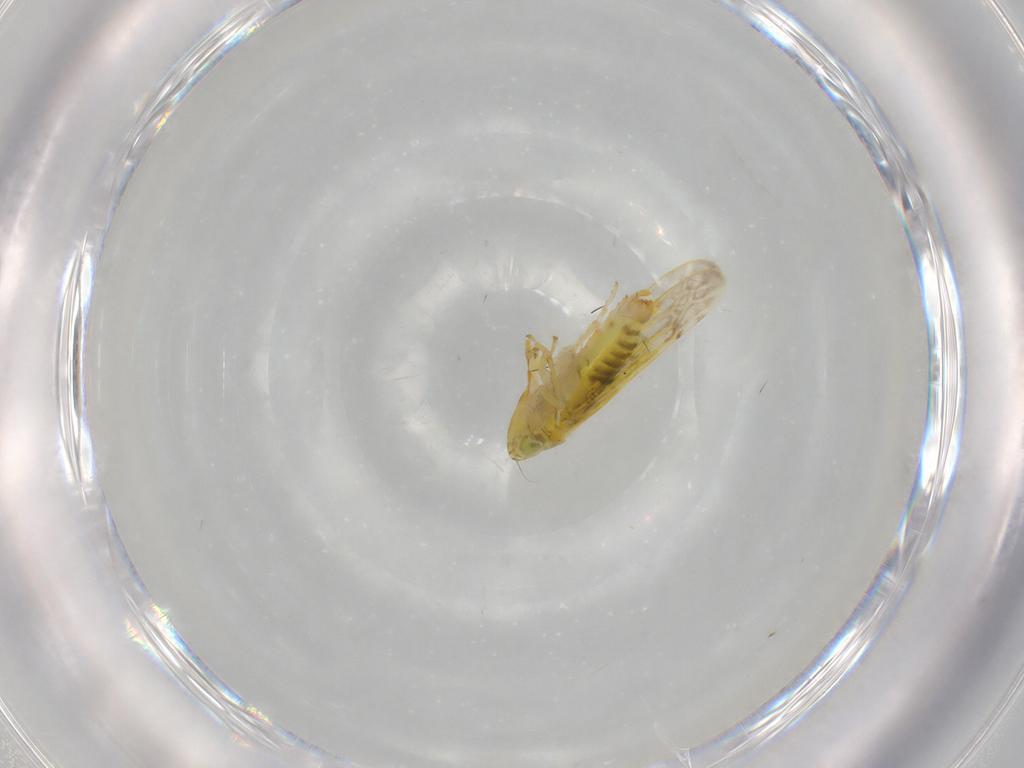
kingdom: Animalia
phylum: Arthropoda
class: Insecta
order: Hemiptera
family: Cicadellidae
